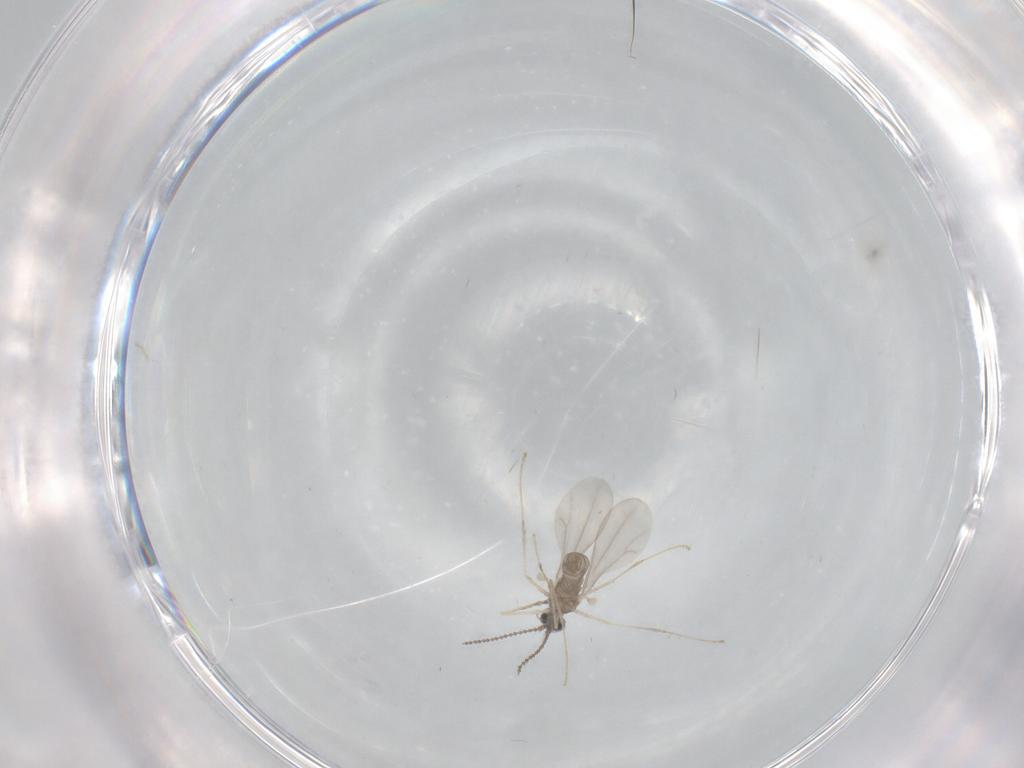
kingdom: Animalia
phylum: Arthropoda
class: Insecta
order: Diptera
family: Cecidomyiidae
